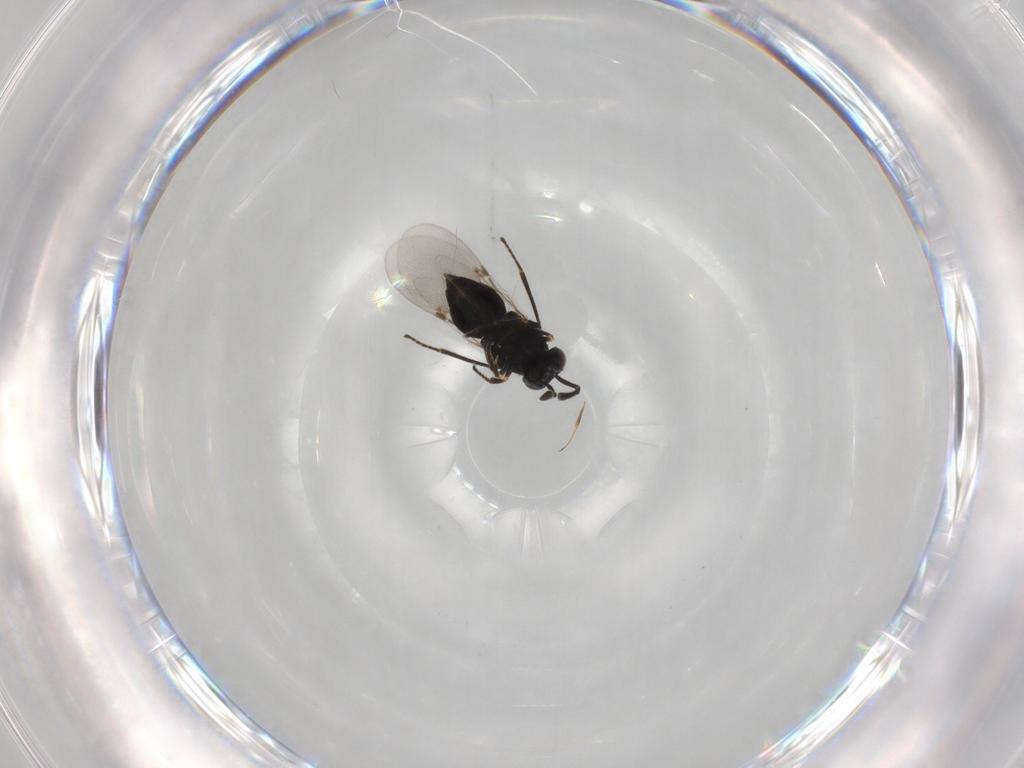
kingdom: Animalia
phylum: Arthropoda
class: Insecta
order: Hymenoptera
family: Encyrtidae
